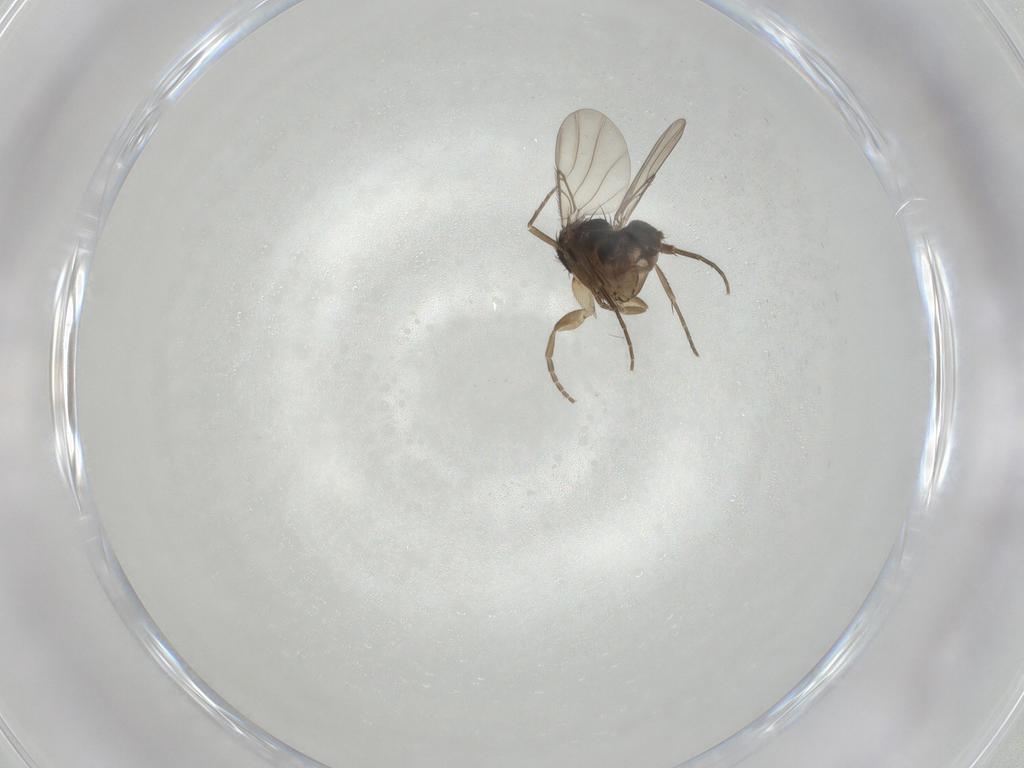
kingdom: Animalia
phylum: Arthropoda
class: Insecta
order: Diptera
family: Phoridae
